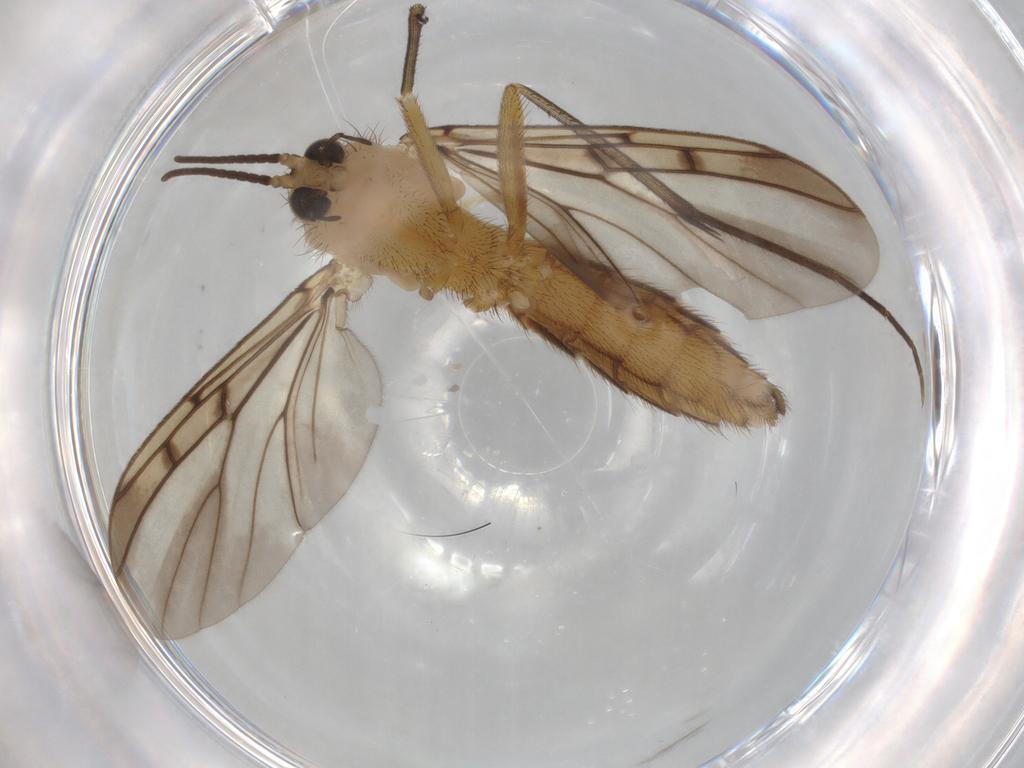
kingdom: Animalia
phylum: Arthropoda
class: Insecta
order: Diptera
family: Mycetophilidae
